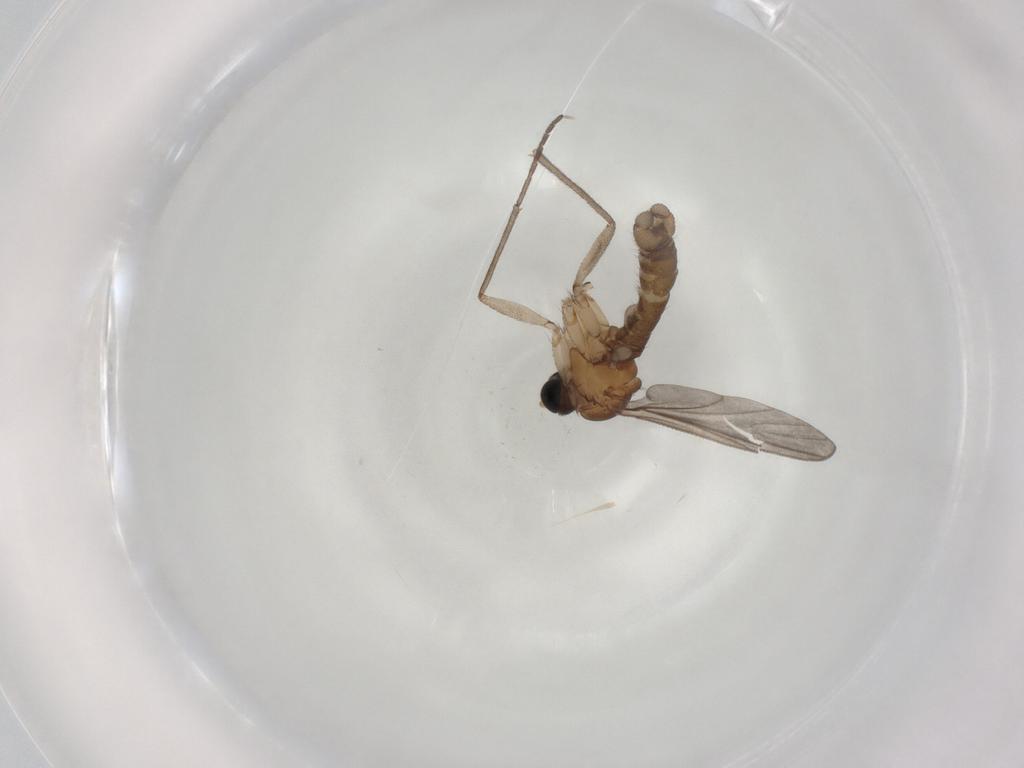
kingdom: Animalia
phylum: Arthropoda
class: Insecta
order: Diptera
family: Sciaridae
